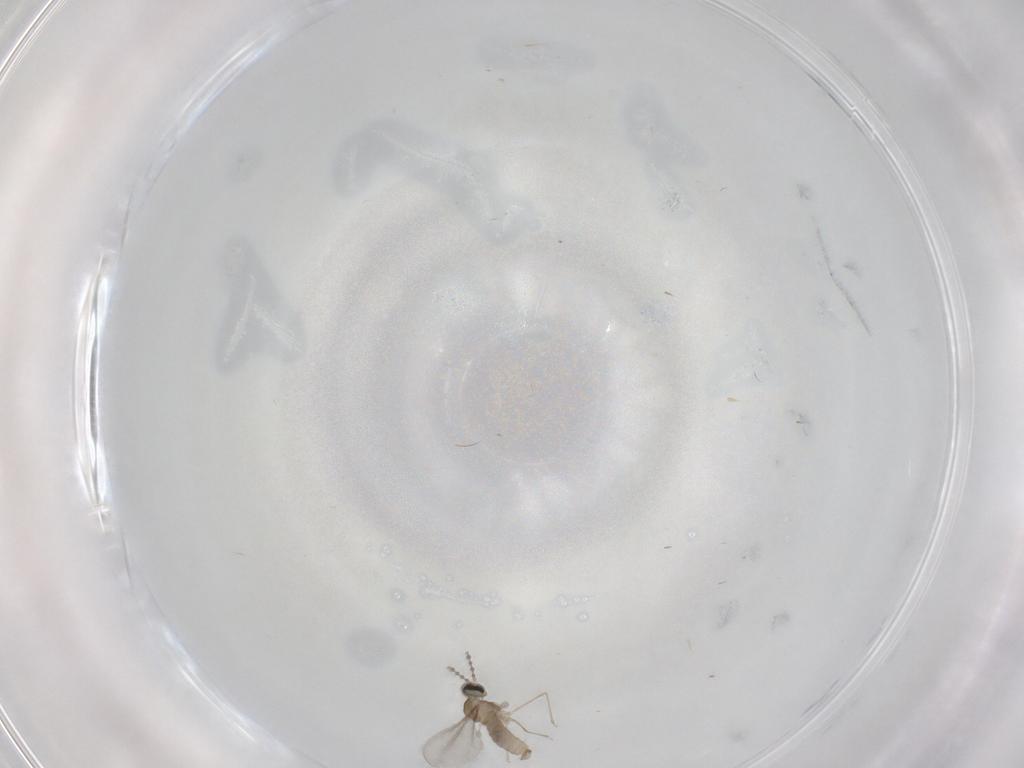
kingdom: Animalia
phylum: Arthropoda
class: Insecta
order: Diptera
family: Cecidomyiidae
